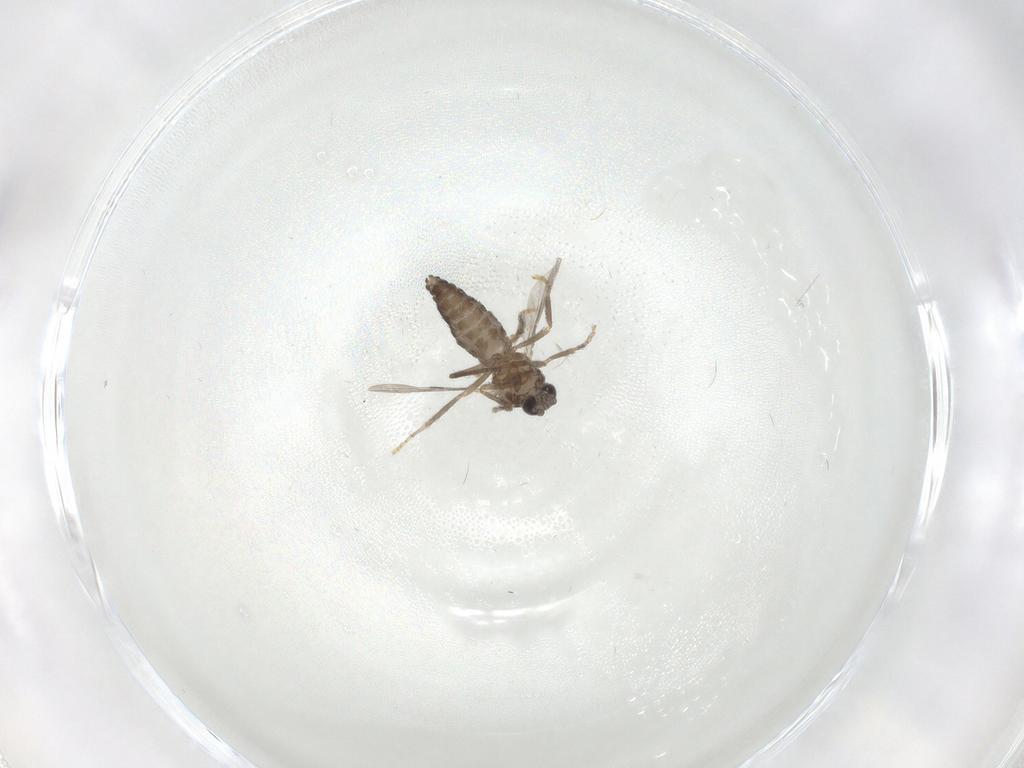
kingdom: Animalia
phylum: Arthropoda
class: Insecta
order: Diptera
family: Ceratopogonidae
